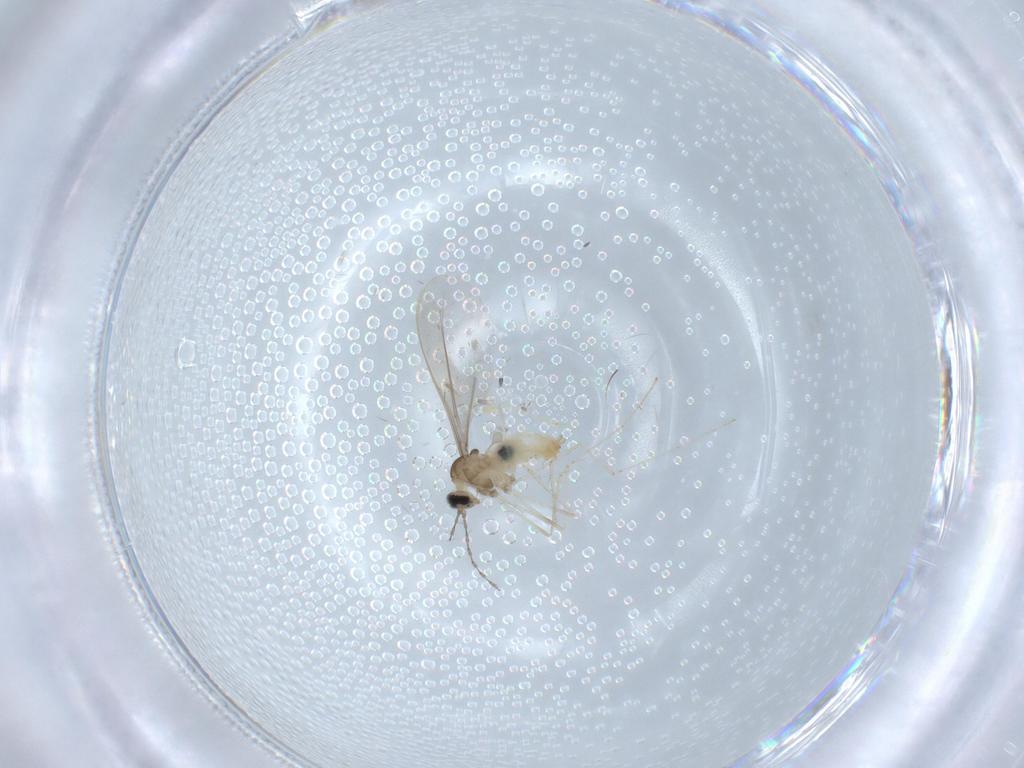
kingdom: Animalia
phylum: Arthropoda
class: Insecta
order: Diptera
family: Cecidomyiidae
